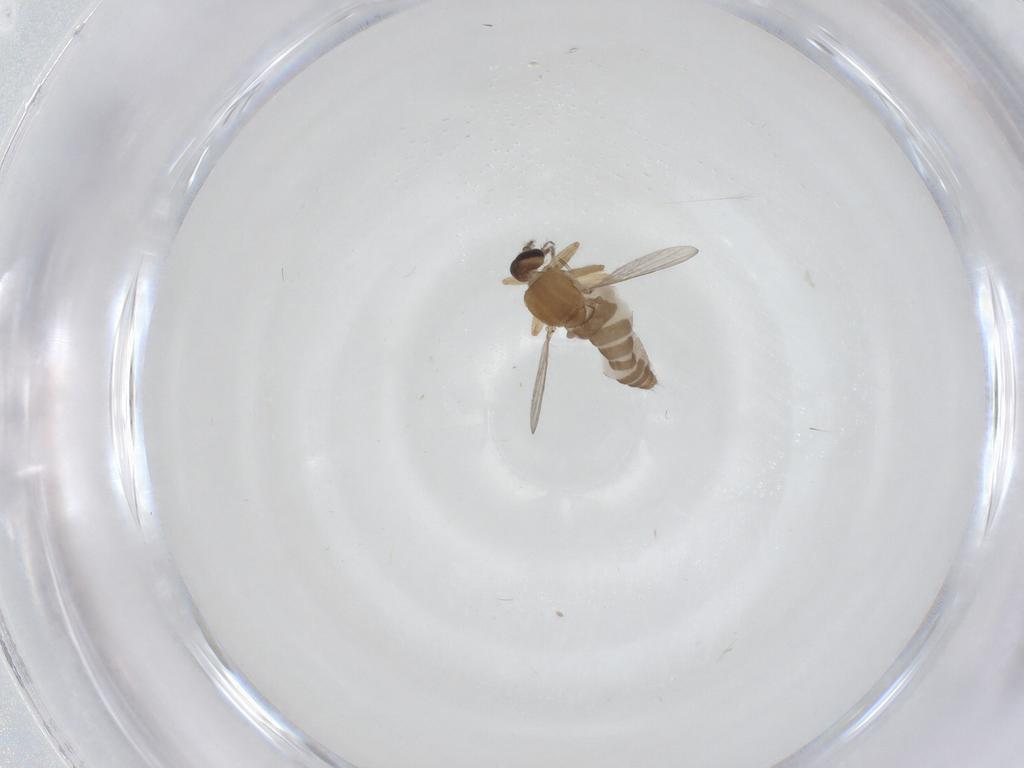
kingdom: Animalia
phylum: Arthropoda
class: Insecta
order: Diptera
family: Ceratopogonidae
